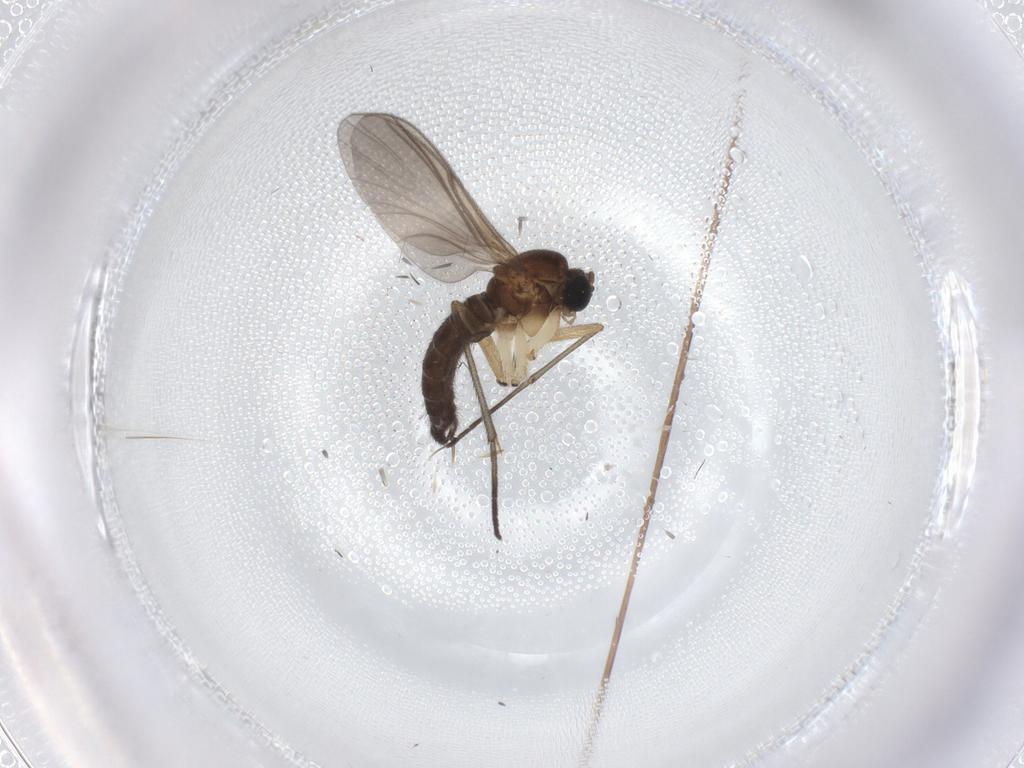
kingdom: Animalia
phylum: Arthropoda
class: Insecta
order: Diptera
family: Sciaridae
